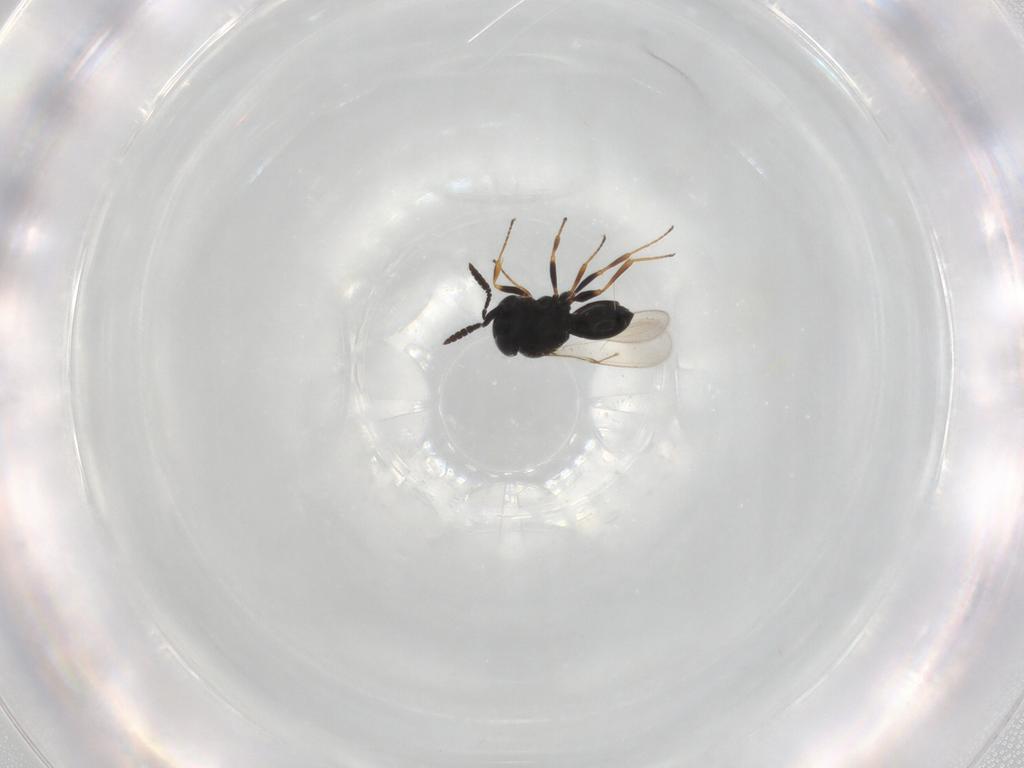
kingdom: Animalia
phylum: Arthropoda
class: Insecta
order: Hymenoptera
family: Scelionidae
